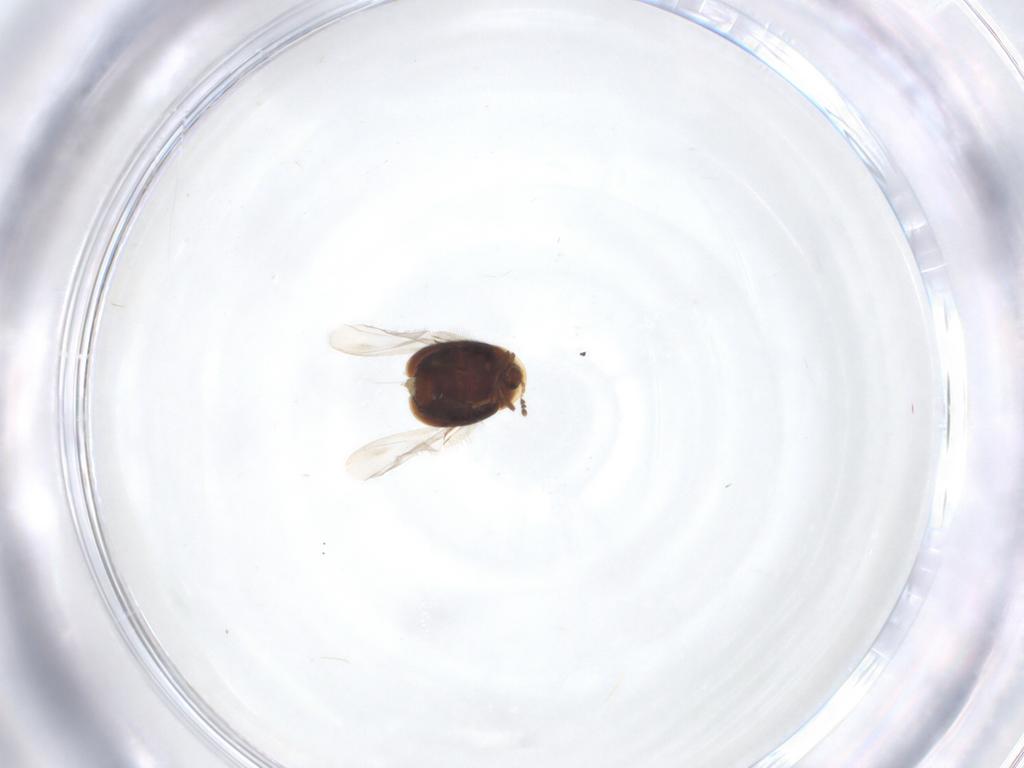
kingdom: Animalia
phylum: Arthropoda
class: Insecta
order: Coleoptera
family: Corylophidae
